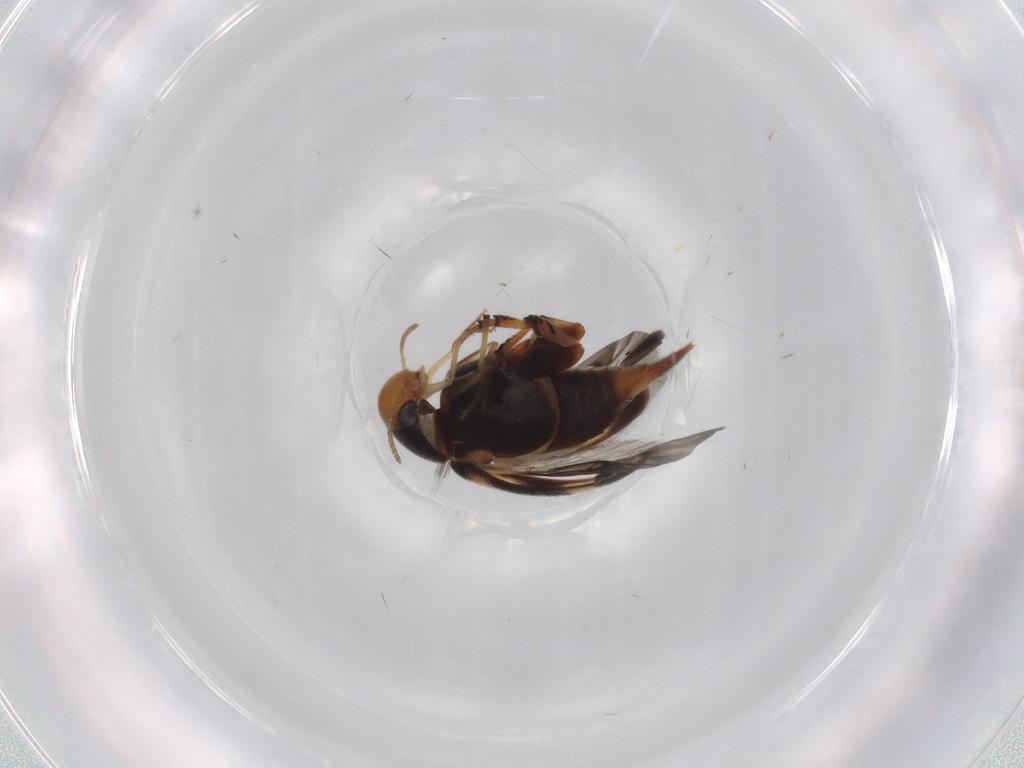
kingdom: Animalia
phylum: Arthropoda
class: Insecta
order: Coleoptera
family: Mordellidae
